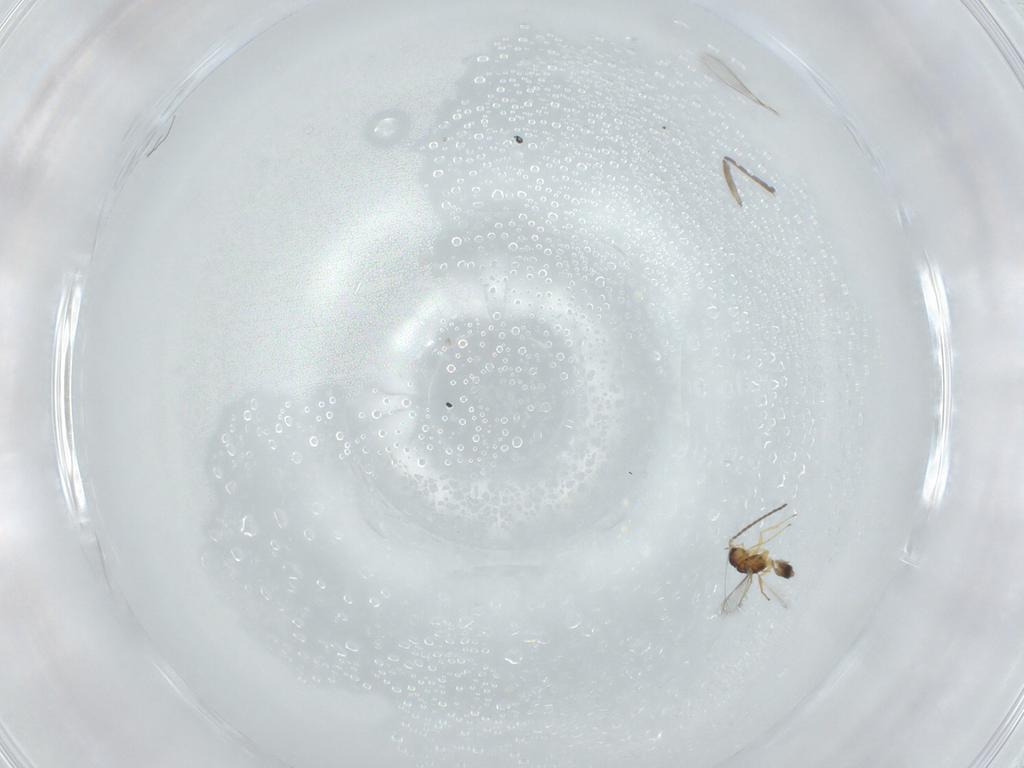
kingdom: Animalia
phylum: Arthropoda
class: Insecta
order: Hymenoptera
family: Mymaridae
